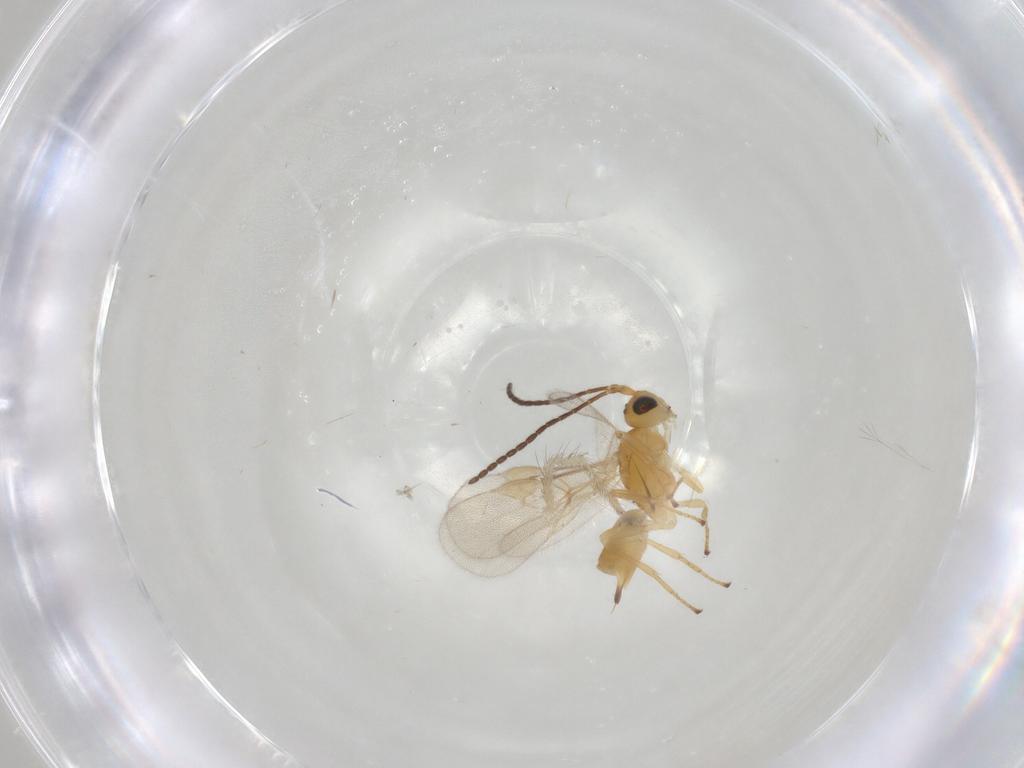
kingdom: Animalia
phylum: Arthropoda
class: Insecta
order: Hymenoptera
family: Braconidae
